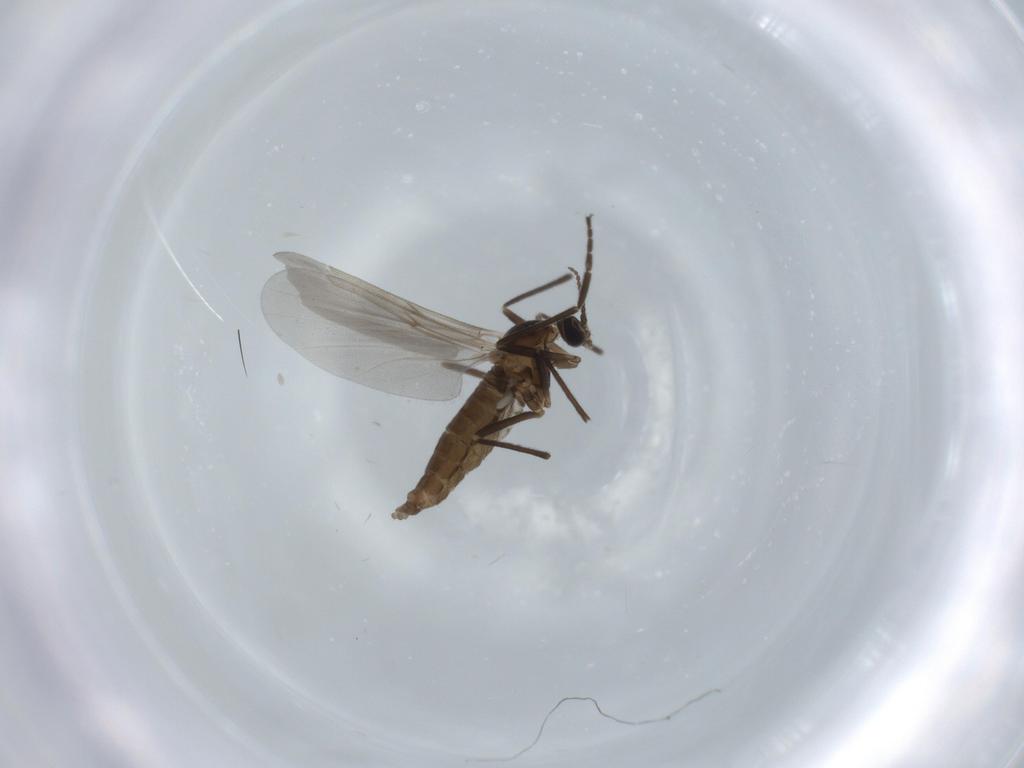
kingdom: Animalia
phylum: Arthropoda
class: Insecta
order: Diptera
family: Cecidomyiidae
